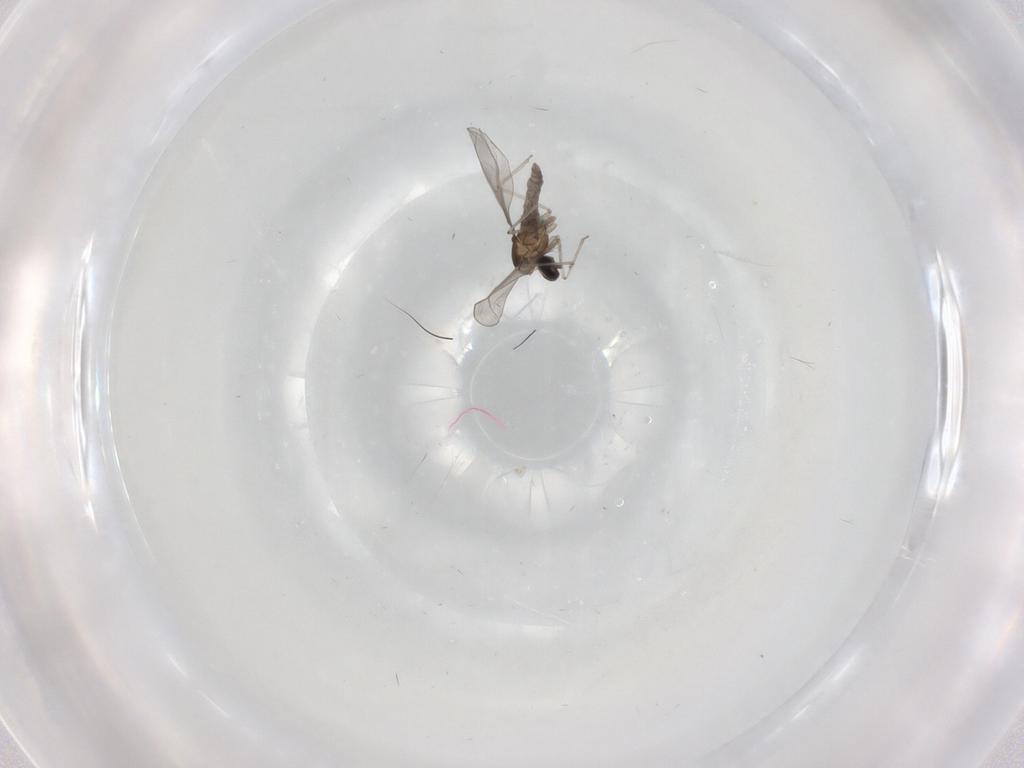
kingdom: Animalia
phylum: Arthropoda
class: Insecta
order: Diptera
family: Cecidomyiidae
